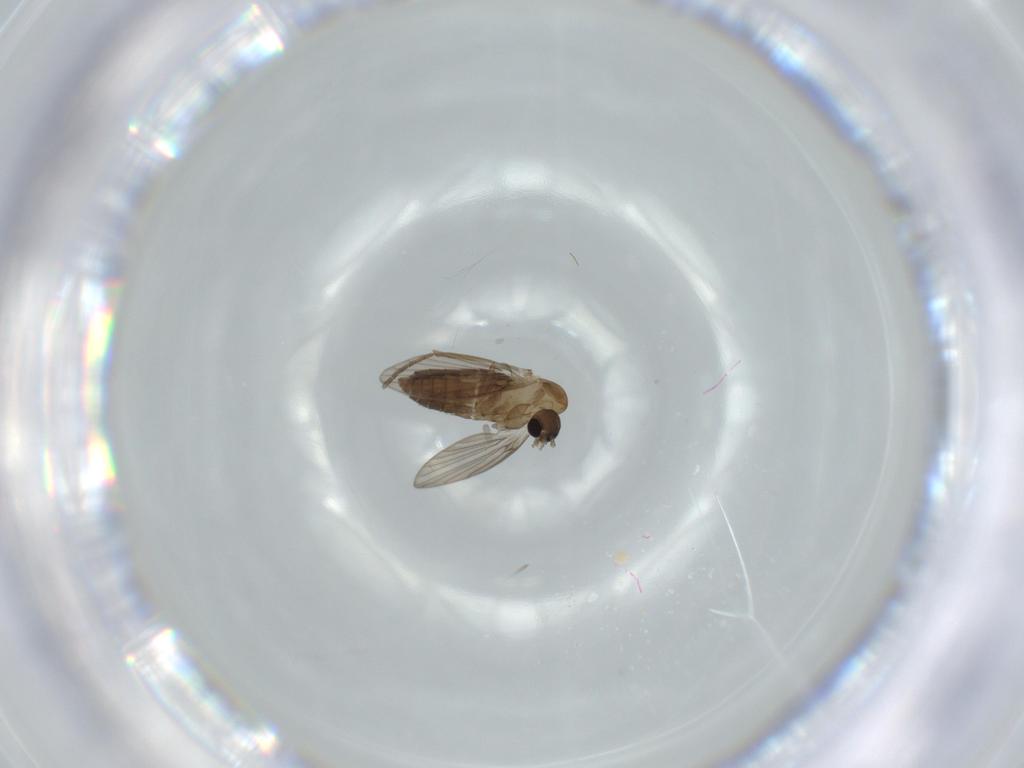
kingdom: Animalia
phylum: Arthropoda
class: Insecta
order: Diptera
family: Psychodidae
